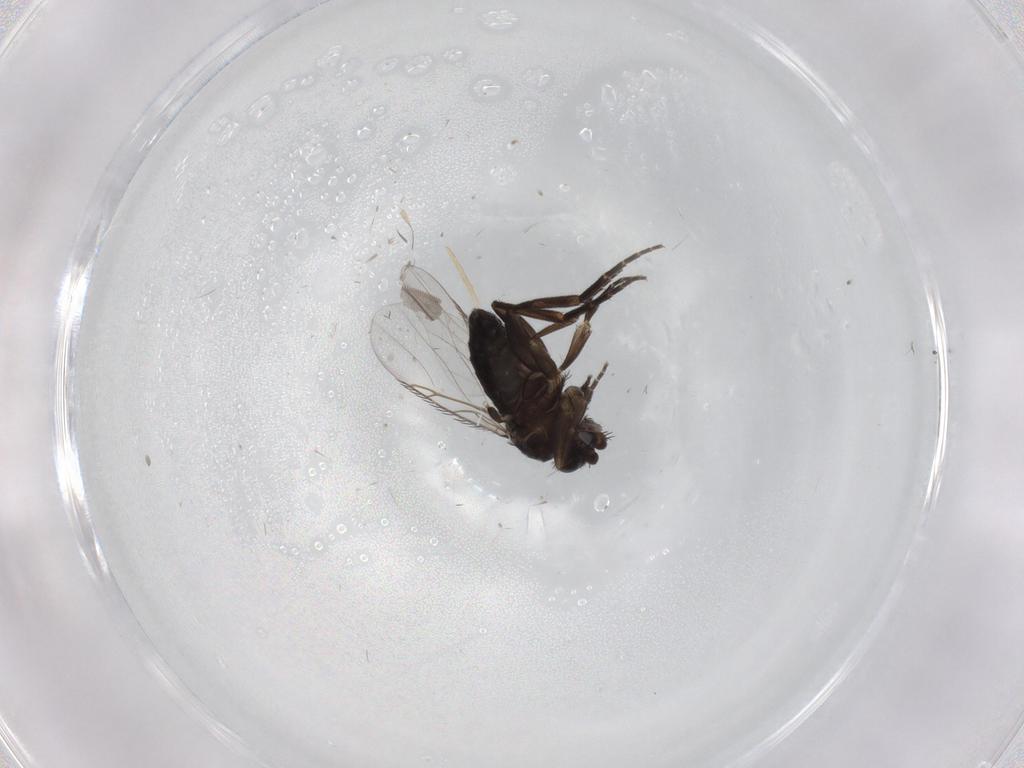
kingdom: Animalia
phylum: Arthropoda
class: Insecta
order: Diptera
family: Phoridae
